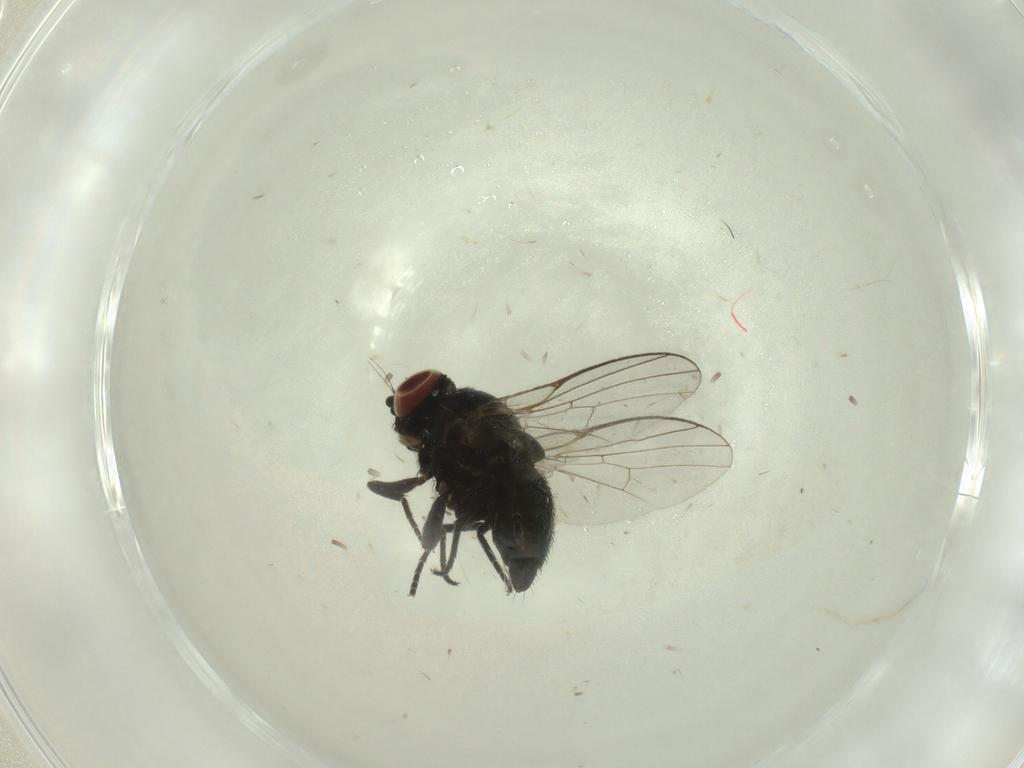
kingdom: Animalia
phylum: Arthropoda
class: Insecta
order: Diptera
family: Agromyzidae
